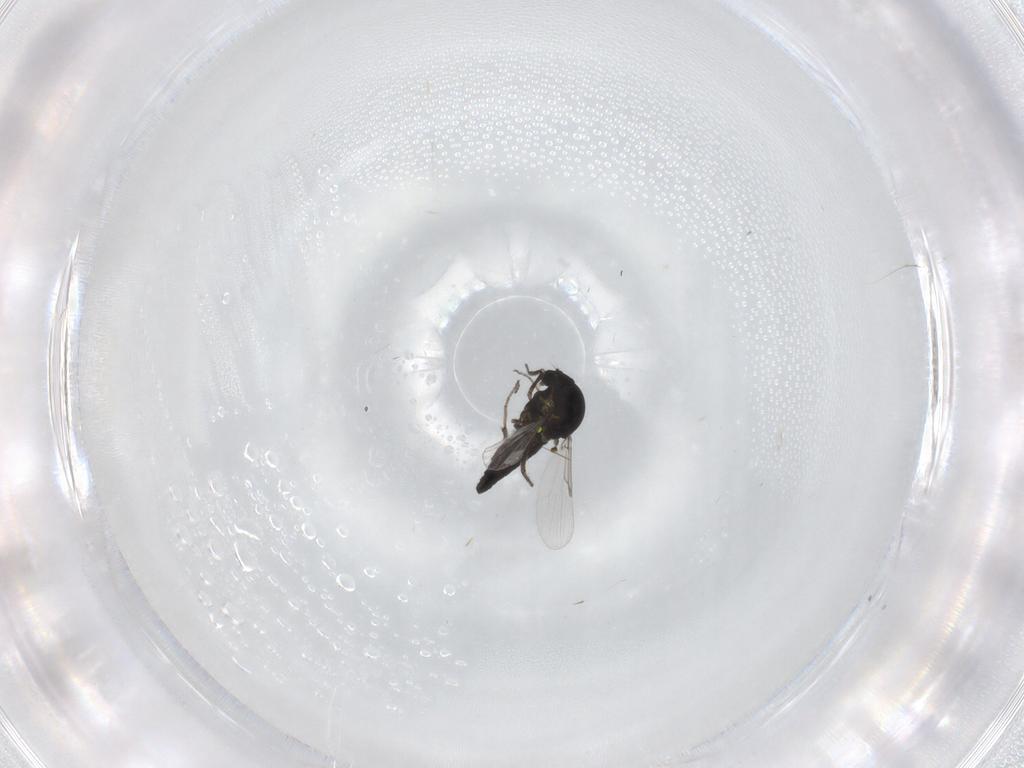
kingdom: Animalia
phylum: Arthropoda
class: Insecta
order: Diptera
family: Ceratopogonidae
